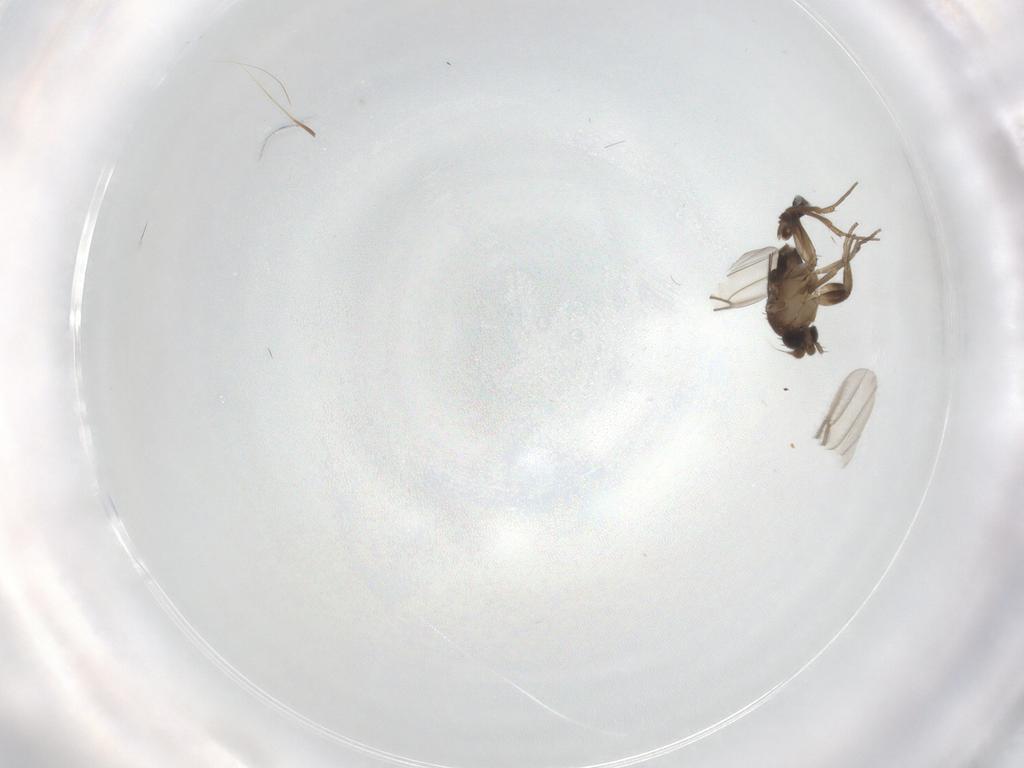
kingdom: Animalia
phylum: Arthropoda
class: Insecta
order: Diptera
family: Phoridae
